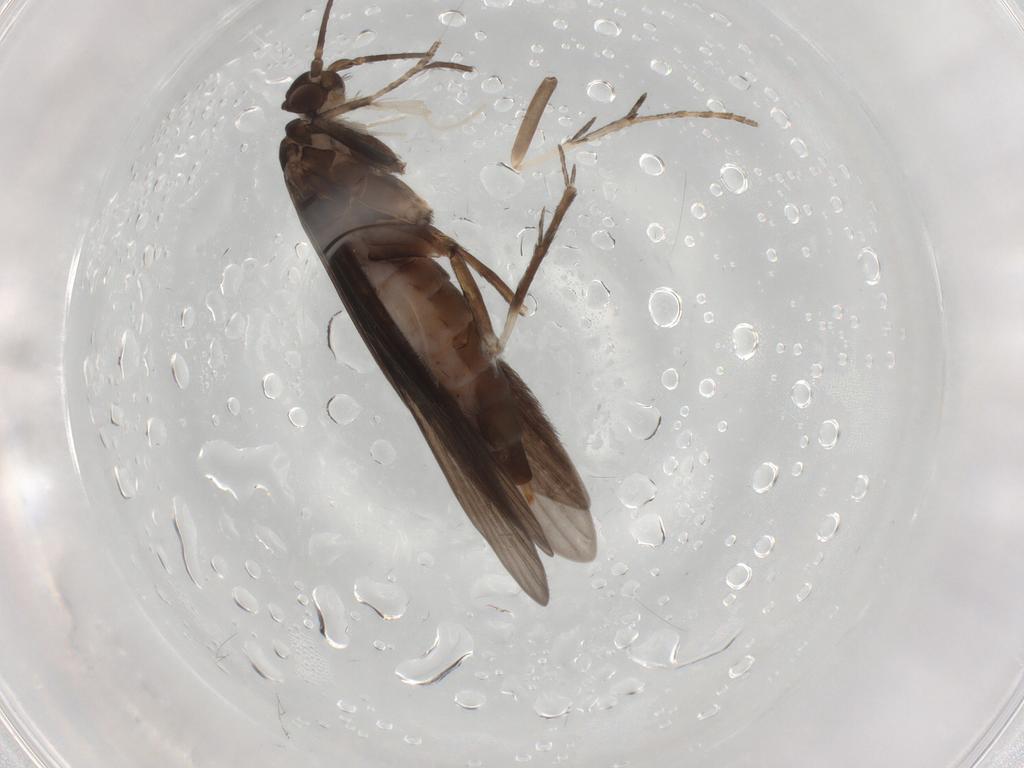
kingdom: Animalia
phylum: Arthropoda
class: Insecta
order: Trichoptera
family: Xiphocentronidae
